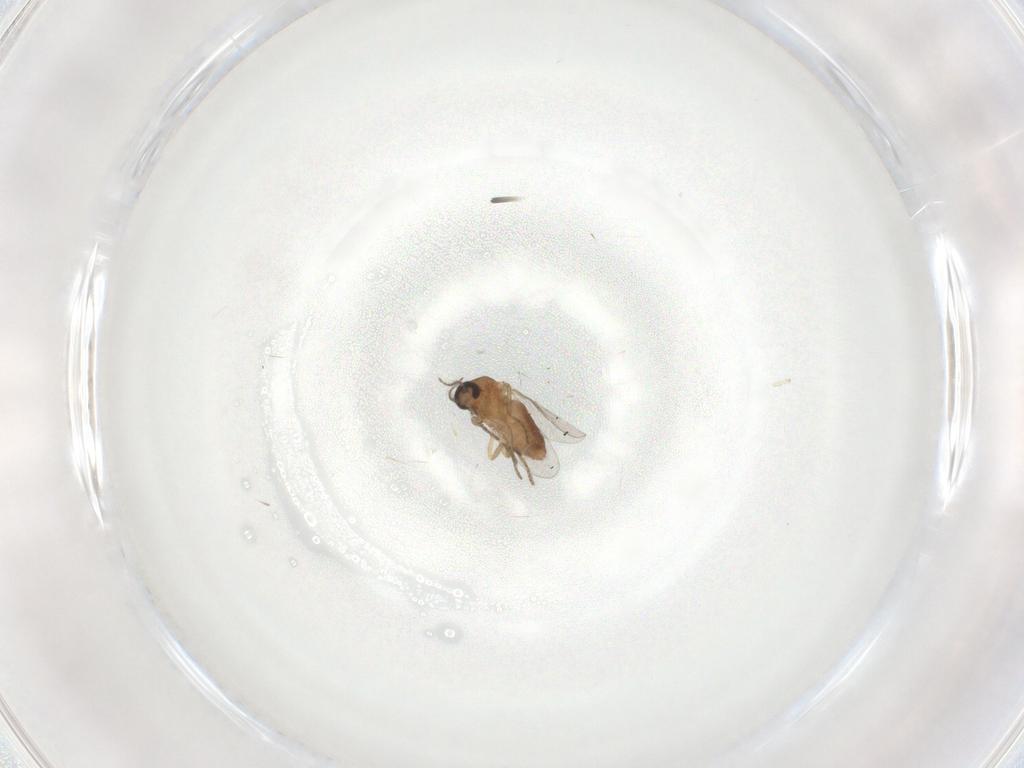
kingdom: Animalia
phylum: Arthropoda
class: Insecta
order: Diptera
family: Ceratopogonidae
